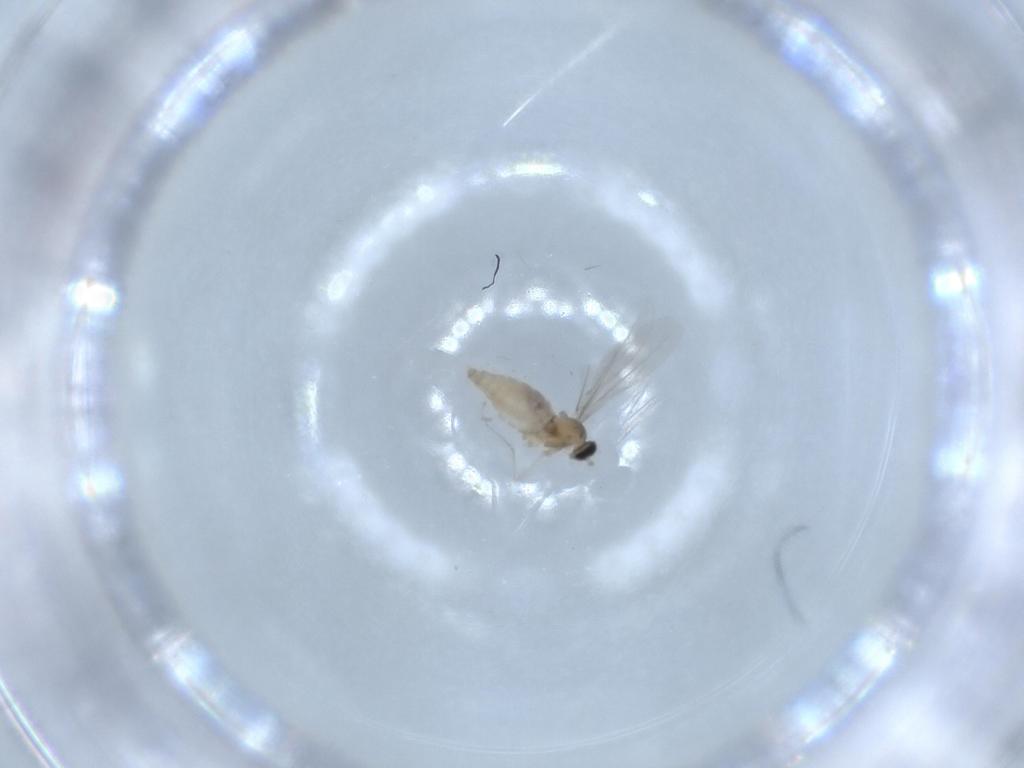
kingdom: Animalia
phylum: Arthropoda
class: Insecta
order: Diptera
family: Cecidomyiidae
